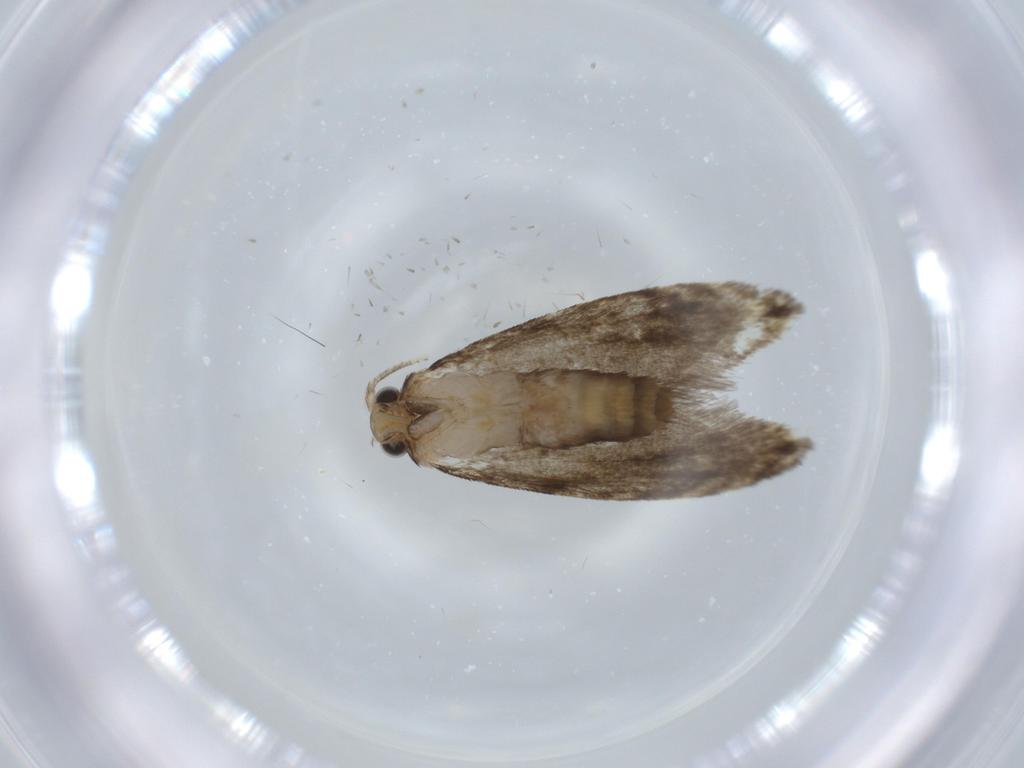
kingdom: Animalia
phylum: Arthropoda
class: Insecta
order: Lepidoptera
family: Tineidae
